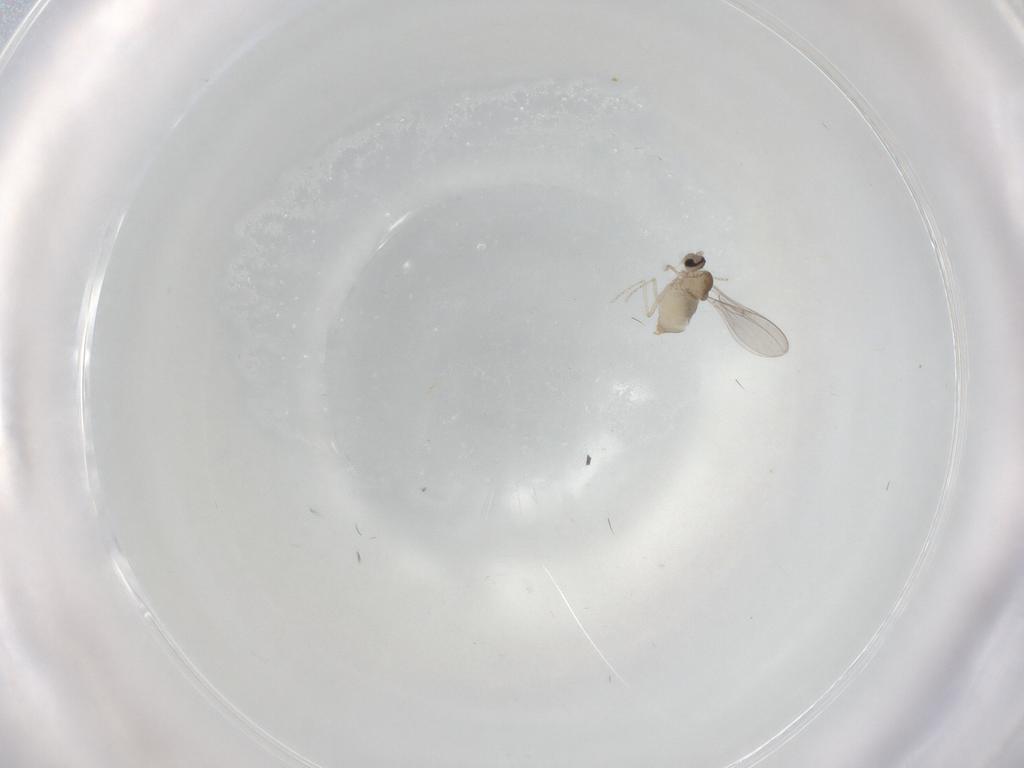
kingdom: Animalia
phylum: Arthropoda
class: Insecta
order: Diptera
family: Cecidomyiidae
